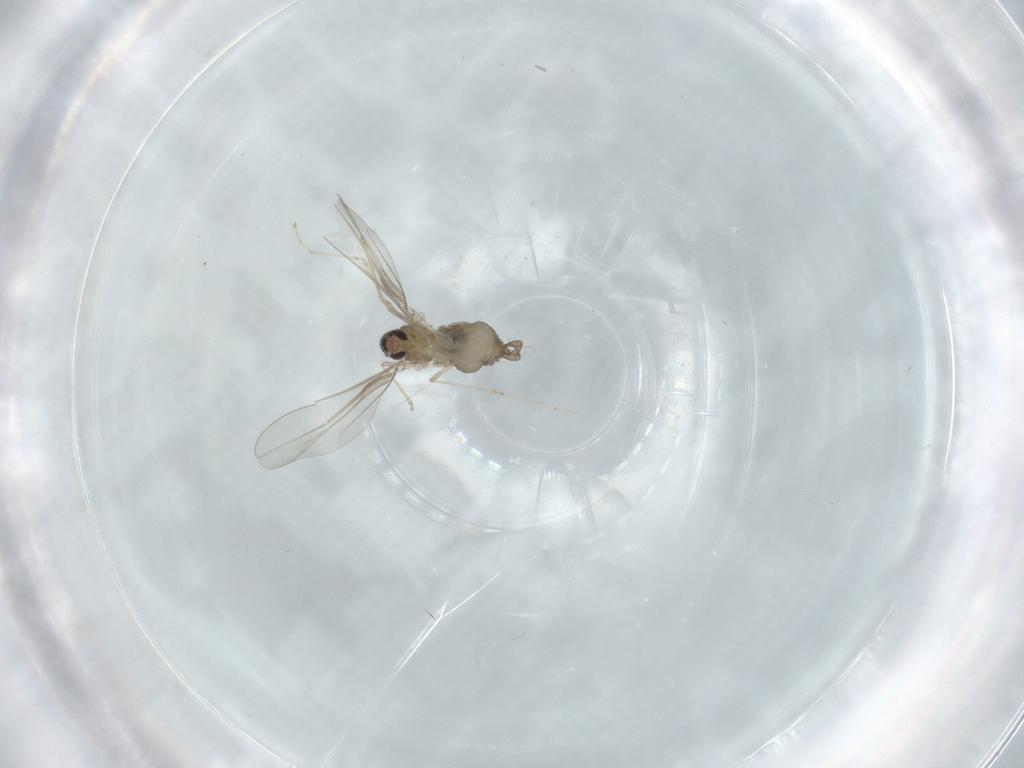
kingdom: Animalia
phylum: Arthropoda
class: Insecta
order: Diptera
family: Cecidomyiidae
